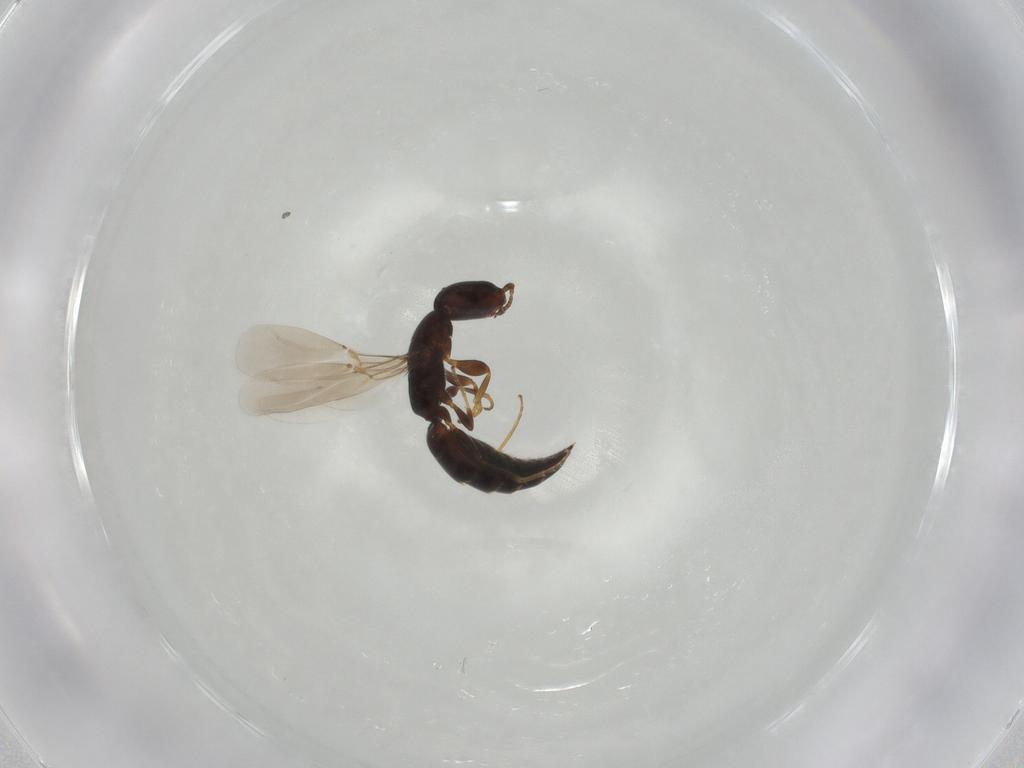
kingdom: Animalia
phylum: Arthropoda
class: Insecta
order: Hymenoptera
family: Bethylidae
